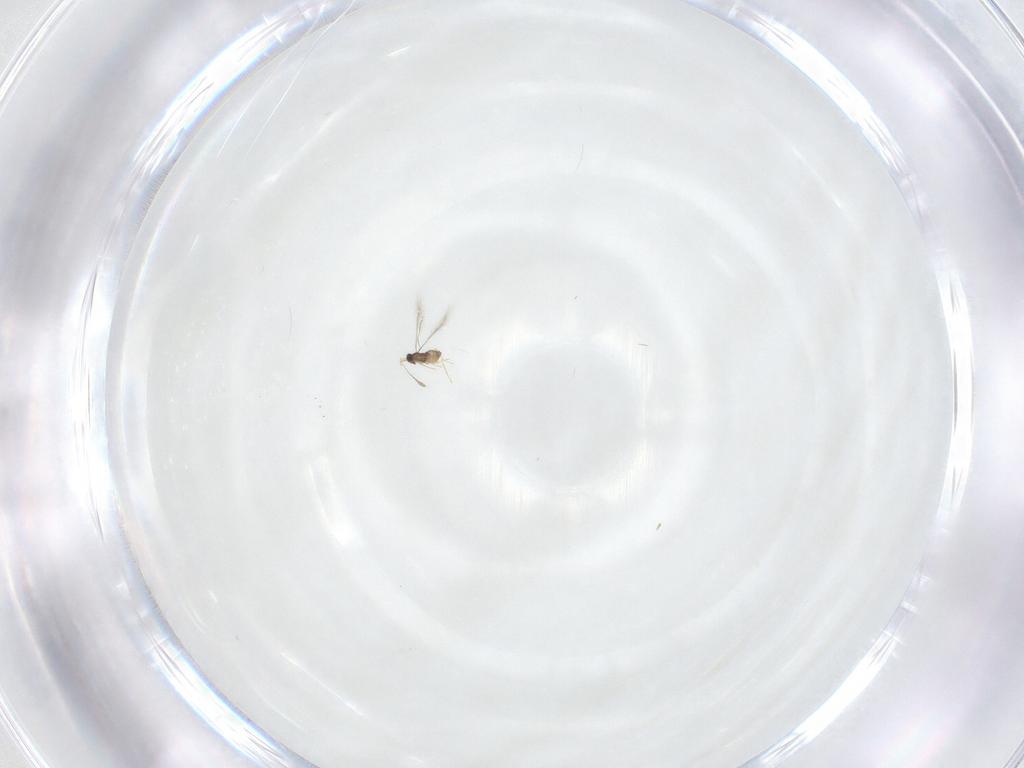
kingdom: Animalia
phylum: Arthropoda
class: Insecta
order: Hymenoptera
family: Mymaridae
